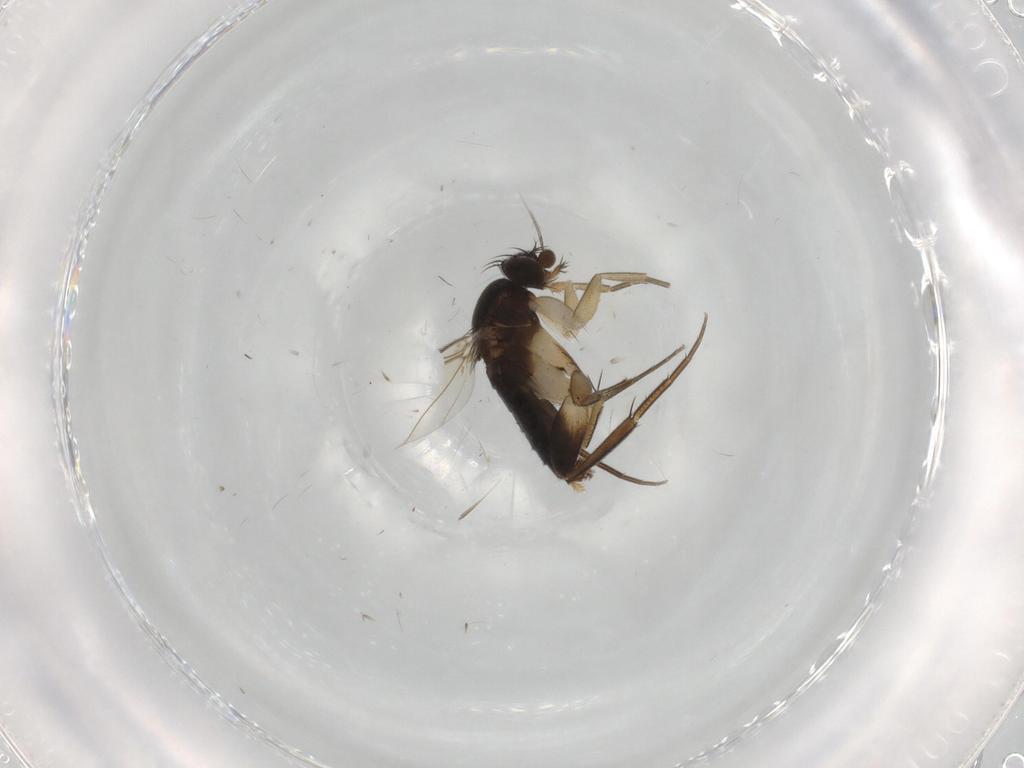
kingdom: Animalia
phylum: Arthropoda
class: Insecta
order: Diptera
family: Phoridae
